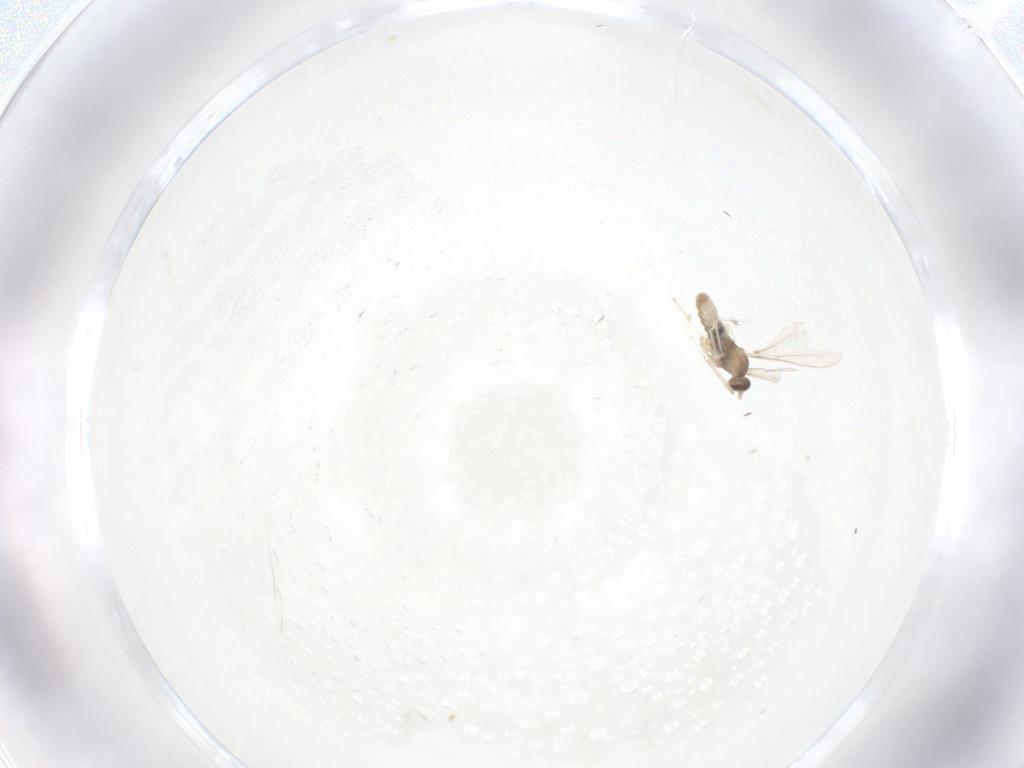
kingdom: Animalia
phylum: Arthropoda
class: Insecta
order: Diptera
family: Cecidomyiidae
